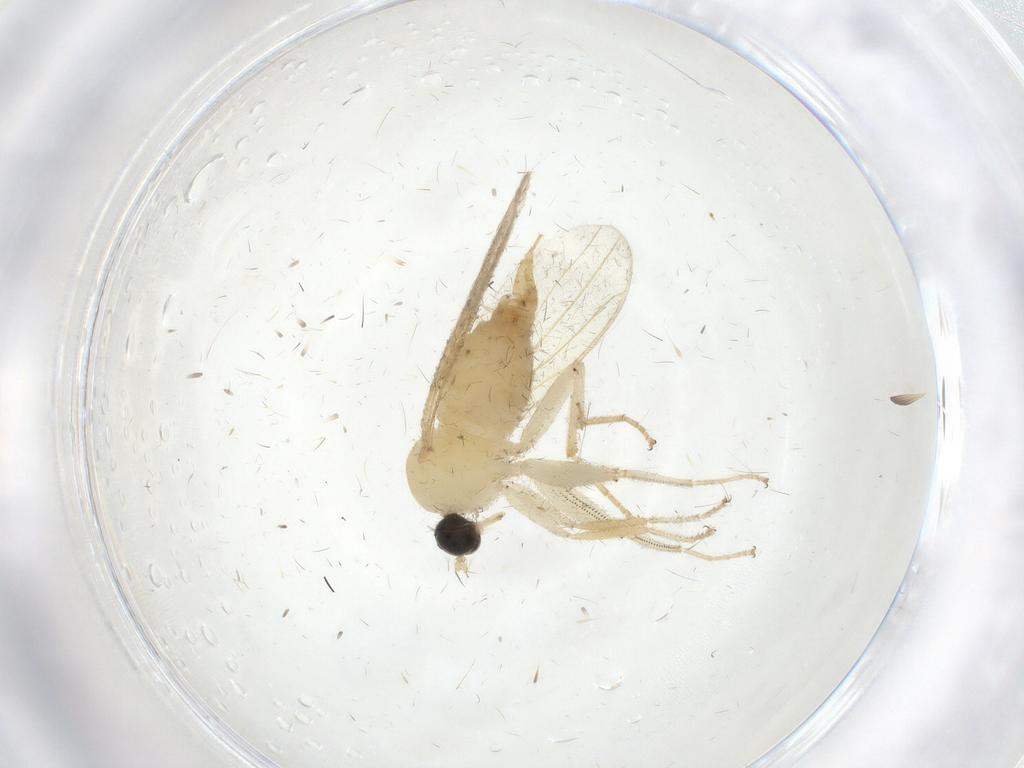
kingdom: Animalia
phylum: Arthropoda
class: Insecta
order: Diptera
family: Hybotidae
